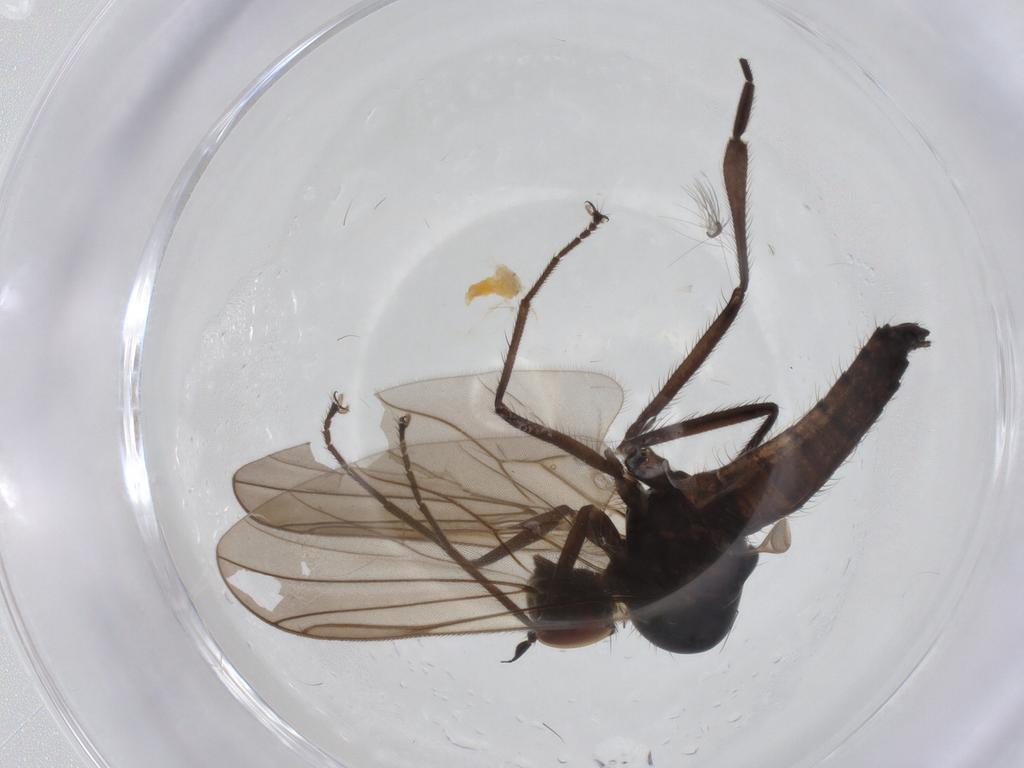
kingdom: Animalia
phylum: Arthropoda
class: Insecta
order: Diptera
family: Hybotidae
